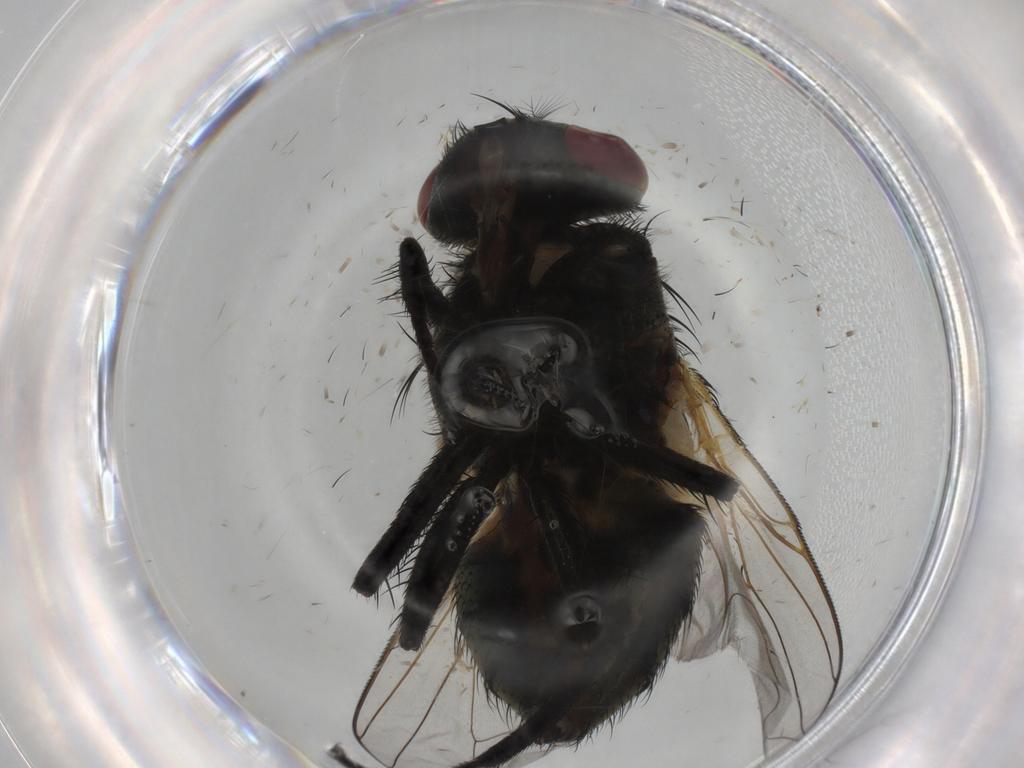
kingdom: Animalia
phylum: Arthropoda
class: Insecta
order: Diptera
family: Muscidae
